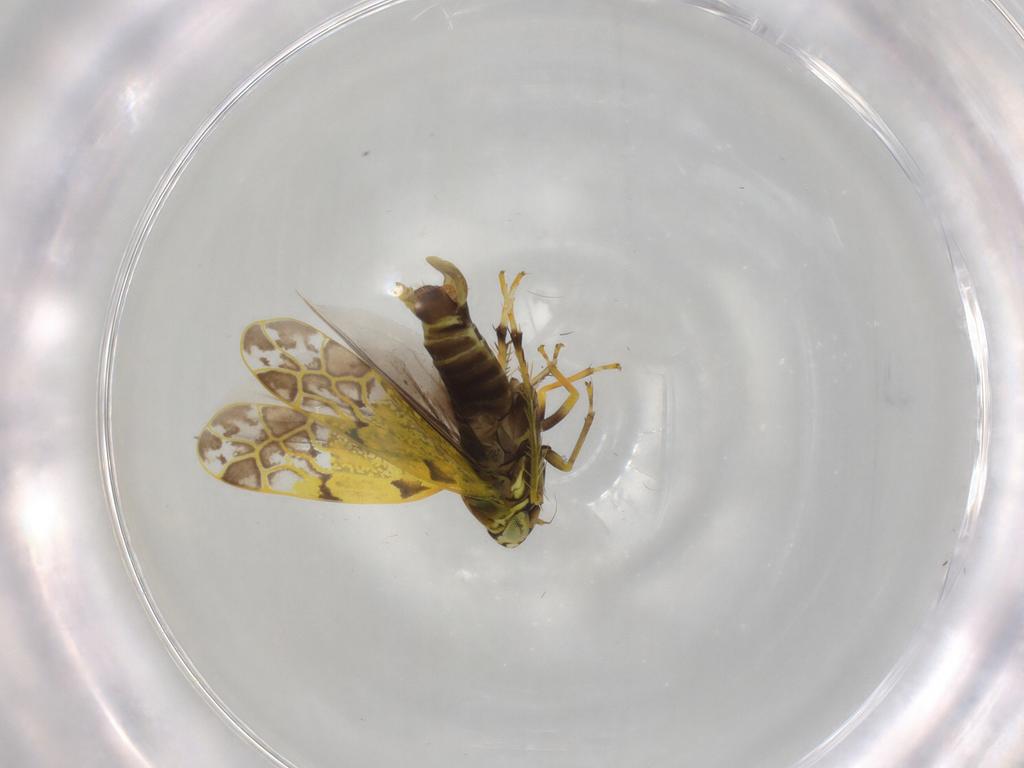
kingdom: Animalia
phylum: Arthropoda
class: Insecta
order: Hemiptera
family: Cicadellidae
